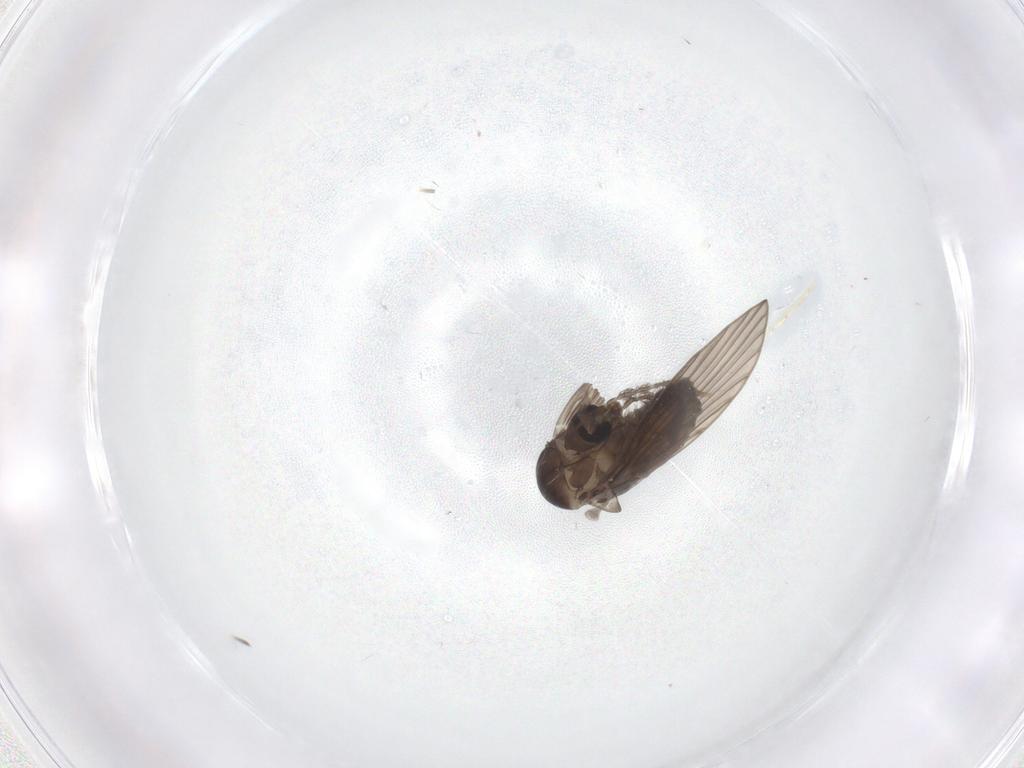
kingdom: Animalia
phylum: Arthropoda
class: Insecta
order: Diptera
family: Psychodidae
